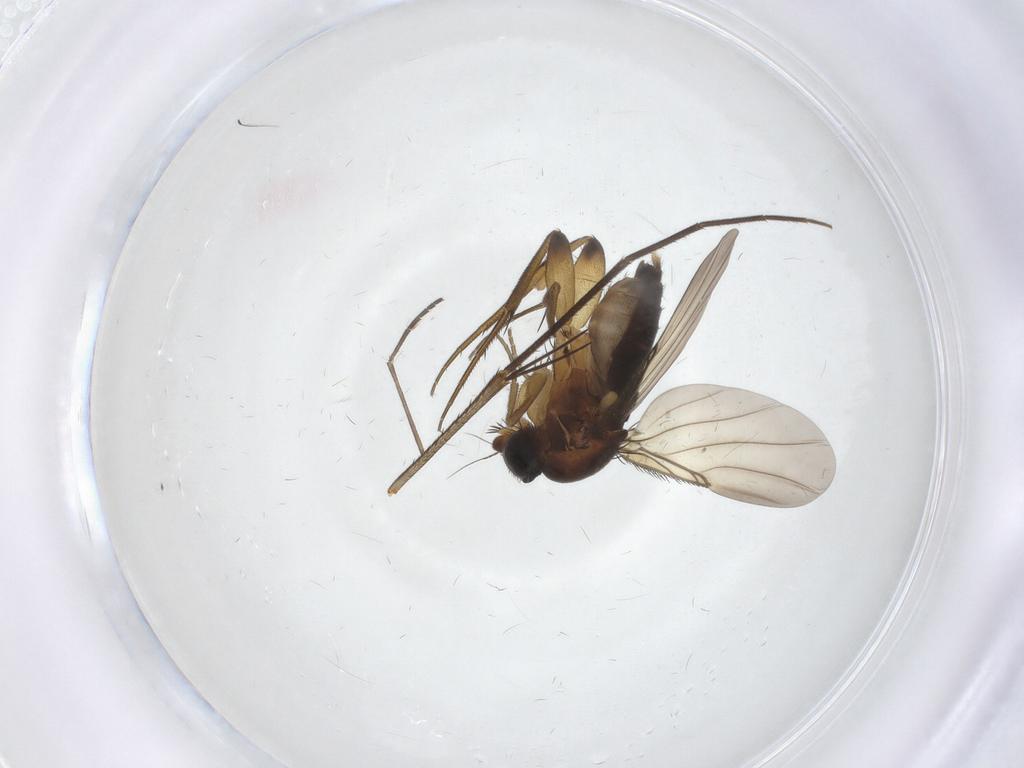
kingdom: Animalia
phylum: Arthropoda
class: Insecta
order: Diptera
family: Phoridae
